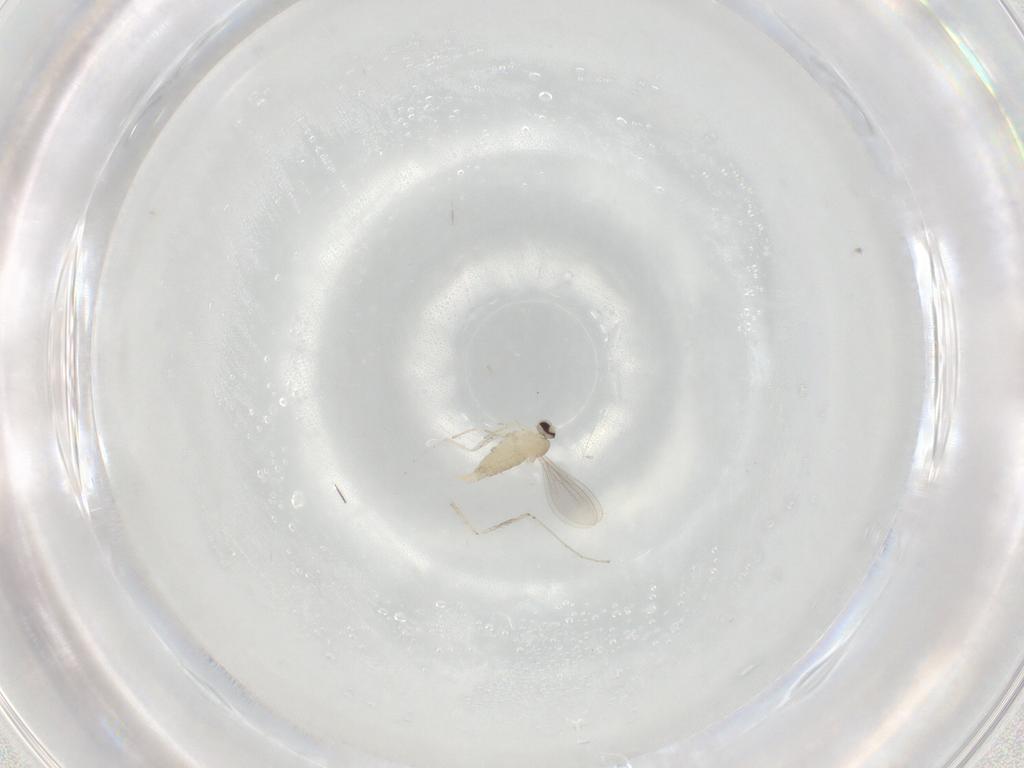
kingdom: Animalia
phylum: Arthropoda
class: Insecta
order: Diptera
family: Cecidomyiidae
